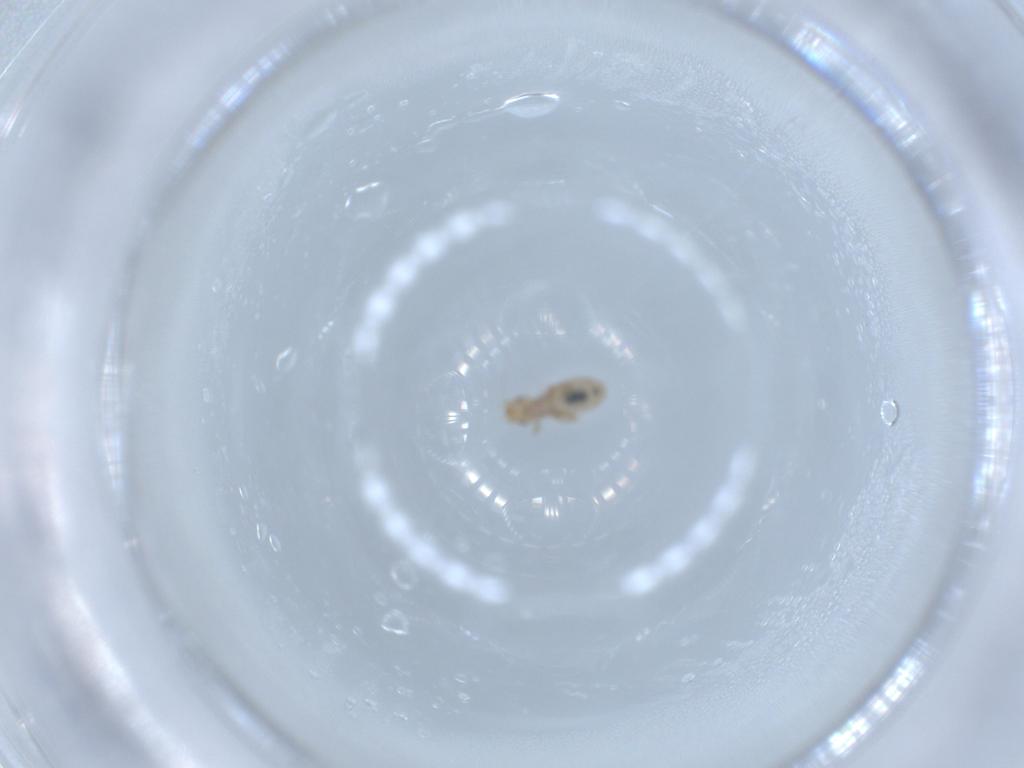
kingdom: Animalia
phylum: Arthropoda
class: Insecta
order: Psocodea
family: Liposcelididae
